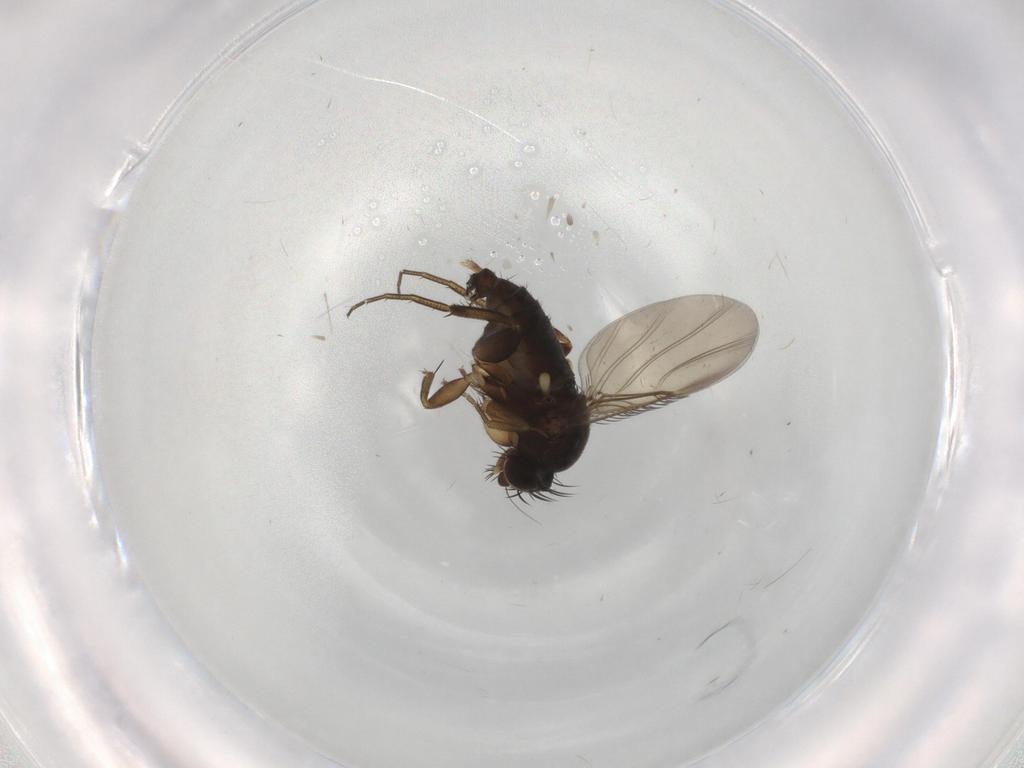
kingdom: Animalia
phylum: Arthropoda
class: Insecta
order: Diptera
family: Phoridae
